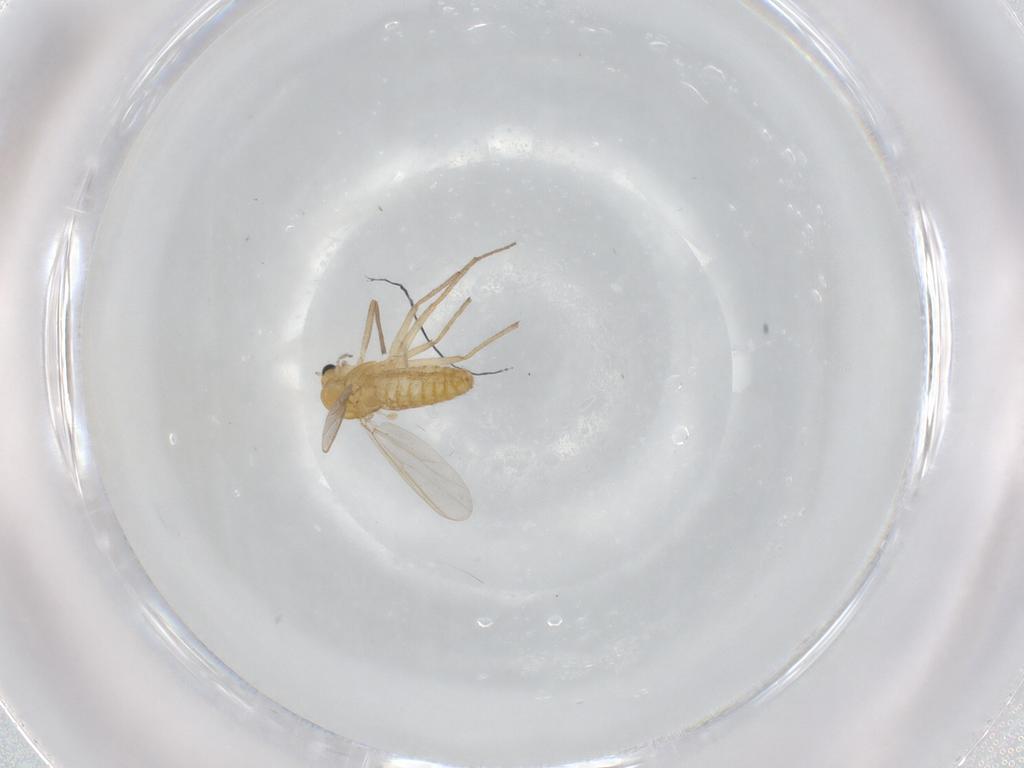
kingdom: Animalia
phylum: Arthropoda
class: Insecta
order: Diptera
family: Chironomidae
